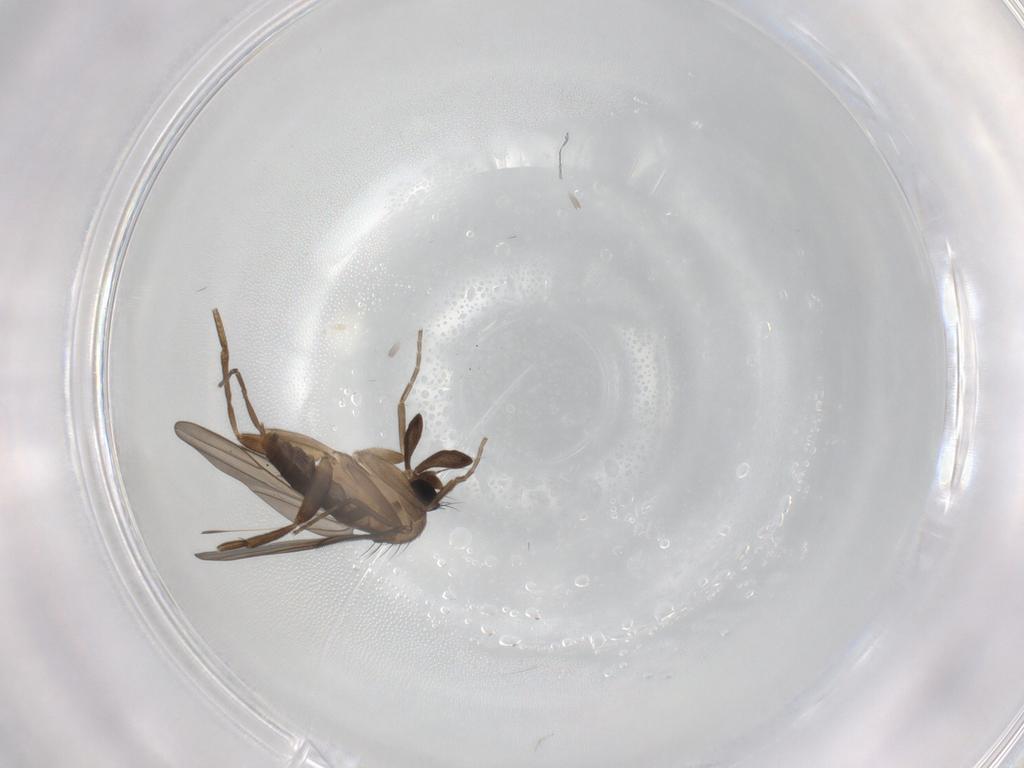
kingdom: Animalia
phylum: Arthropoda
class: Insecta
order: Diptera
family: Phoridae
